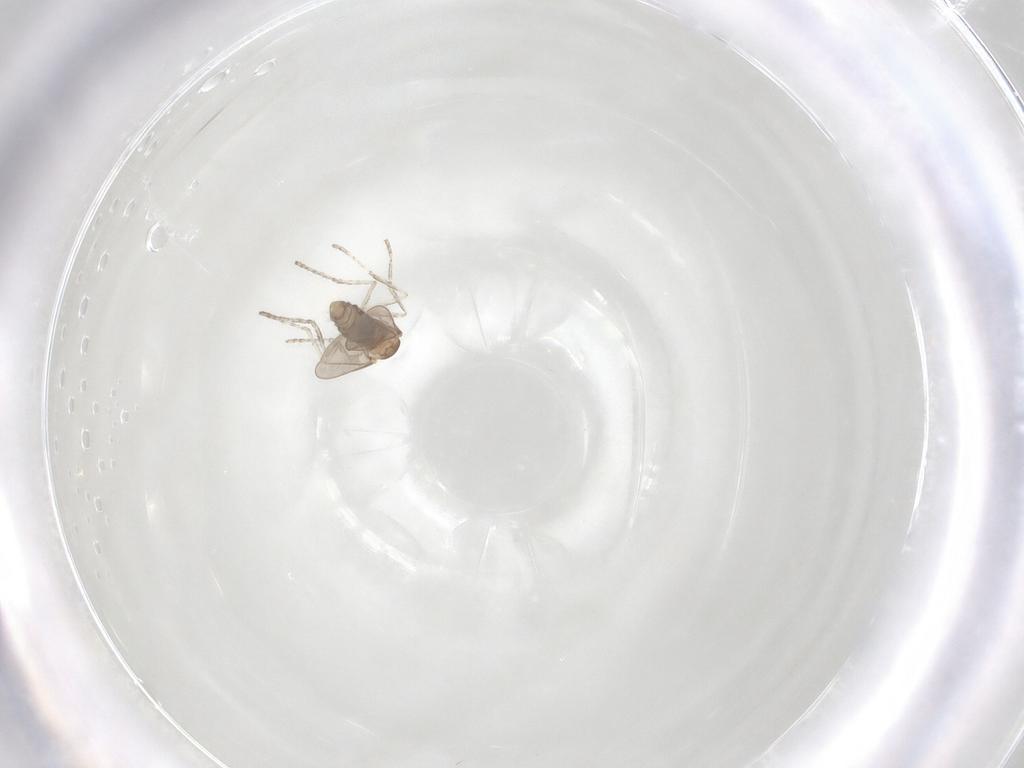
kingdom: Animalia
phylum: Arthropoda
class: Insecta
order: Diptera
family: Cecidomyiidae
